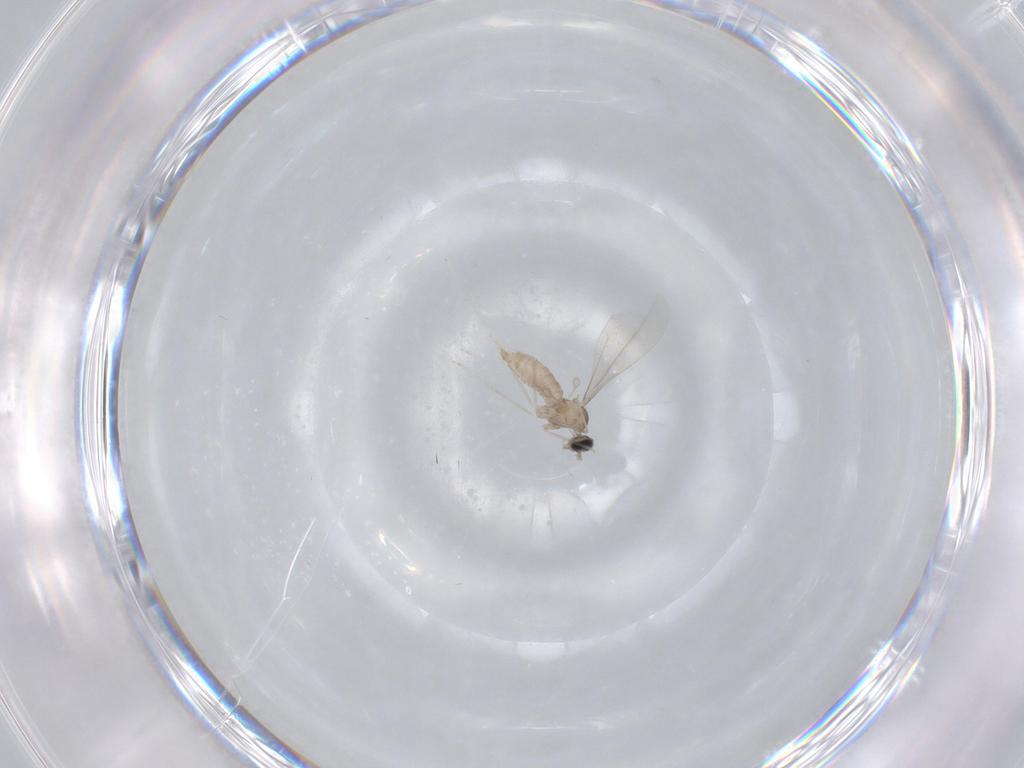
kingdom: Animalia
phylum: Arthropoda
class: Insecta
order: Diptera
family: Cecidomyiidae
